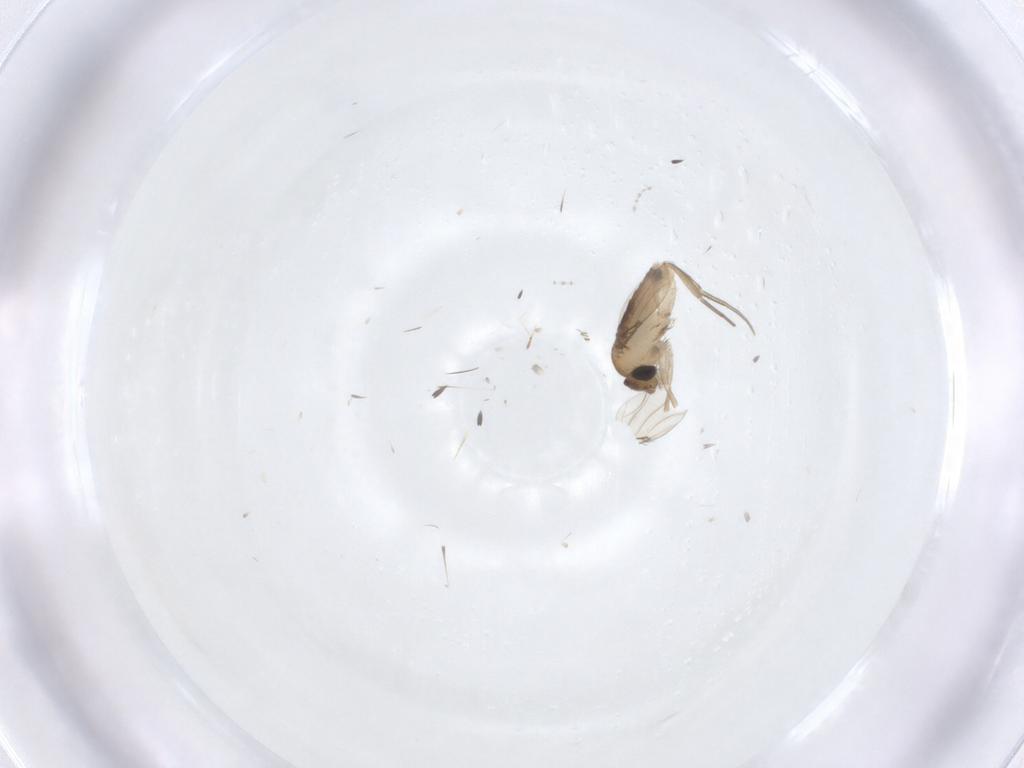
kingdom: Animalia
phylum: Arthropoda
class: Insecta
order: Diptera
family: Phoridae
